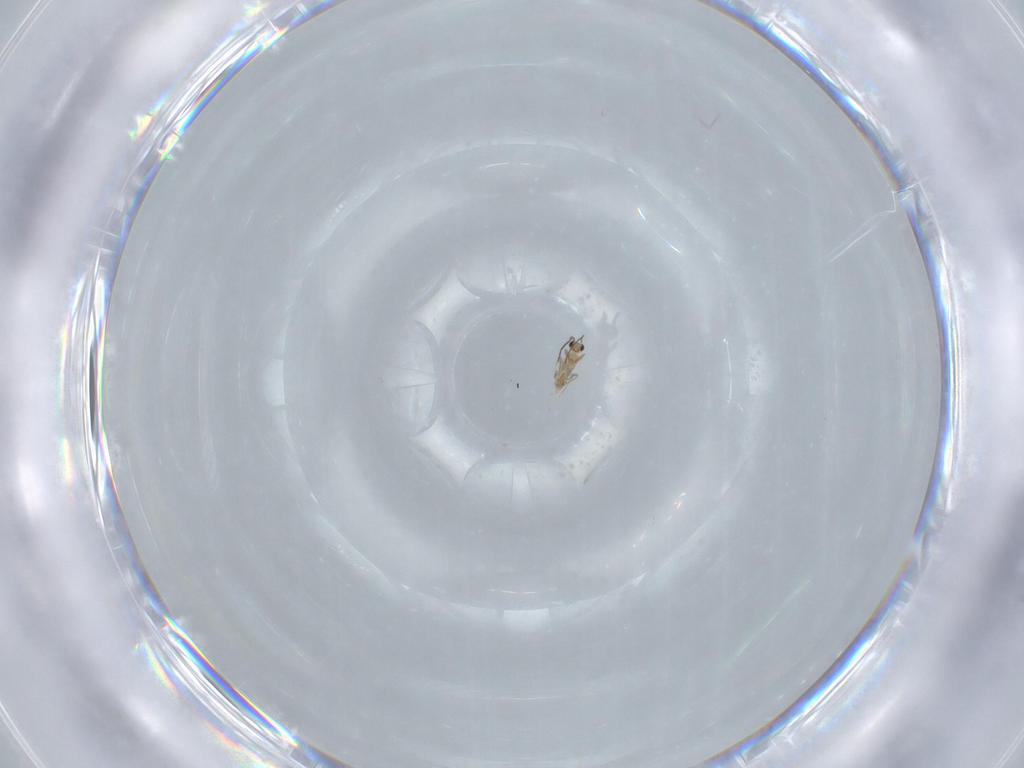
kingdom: Animalia
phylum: Arthropoda
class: Insecta
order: Hymenoptera
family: Mymaridae
